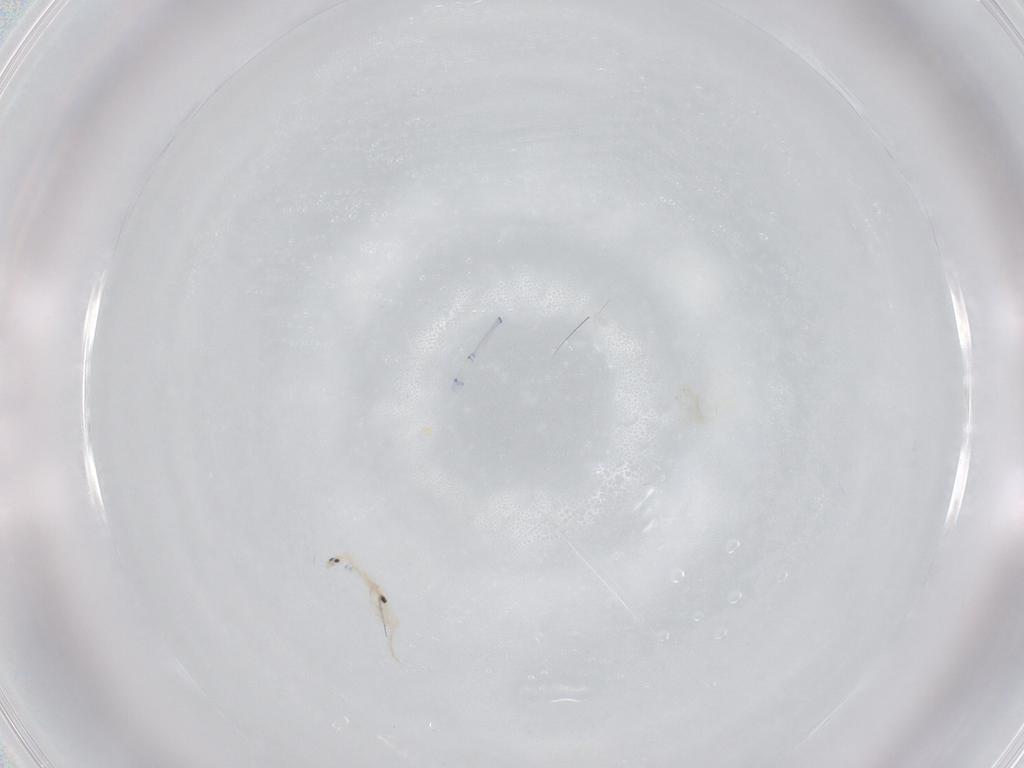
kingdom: Animalia
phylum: Arthropoda
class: Collembola
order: Entomobryomorpha
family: Entomobryidae
